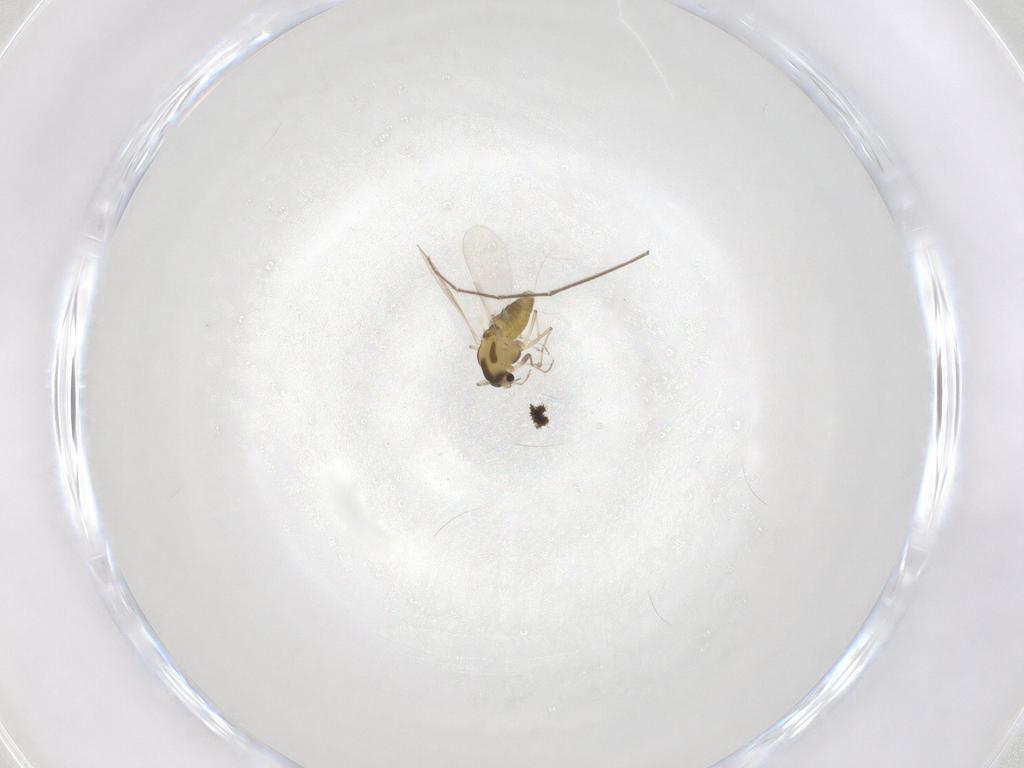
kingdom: Animalia
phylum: Arthropoda
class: Insecta
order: Diptera
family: Chironomidae
